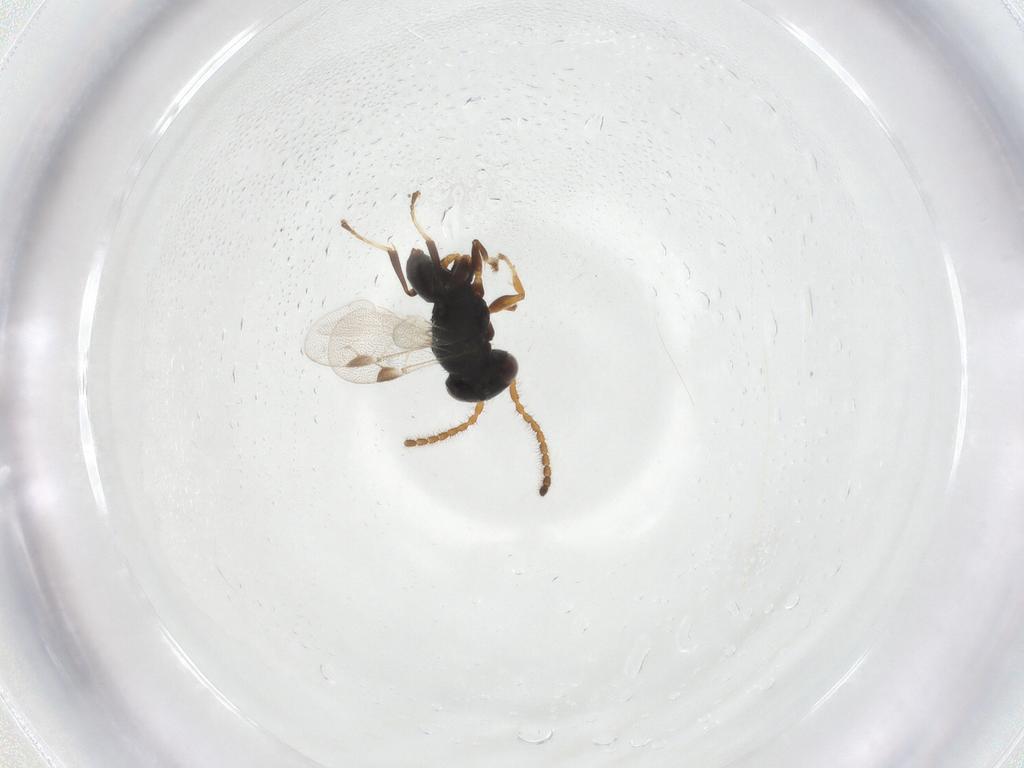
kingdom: Animalia
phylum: Arthropoda
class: Insecta
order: Hymenoptera
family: Dryinidae
